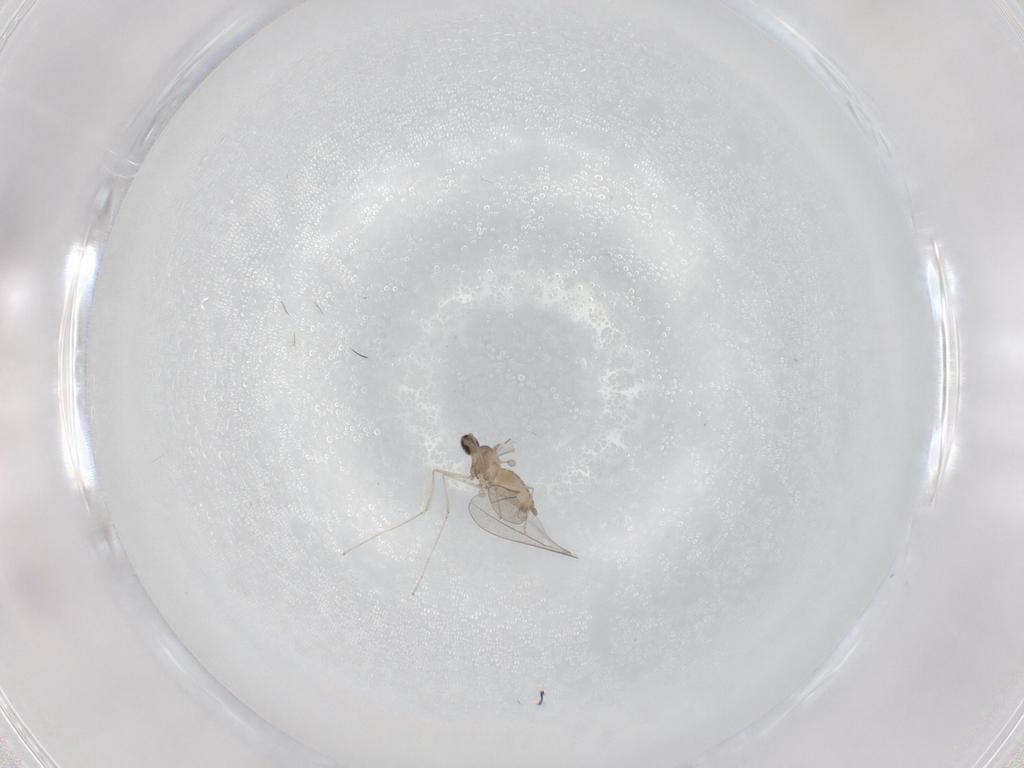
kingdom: Animalia
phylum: Arthropoda
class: Insecta
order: Diptera
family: Cecidomyiidae
